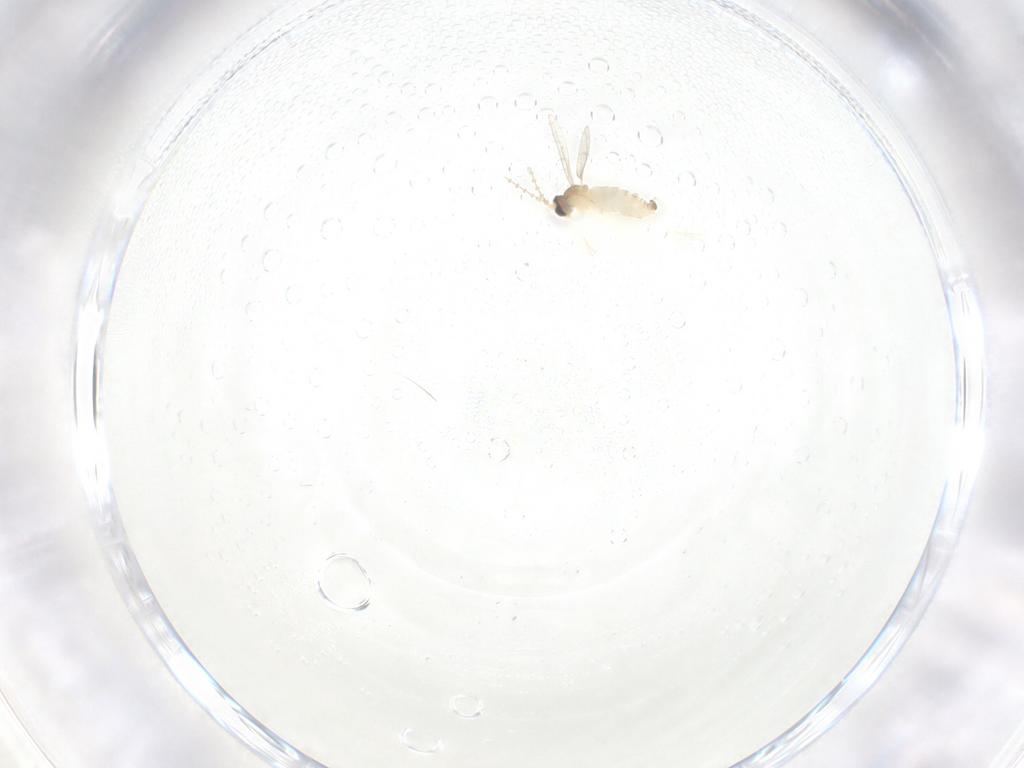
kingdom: Animalia
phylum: Arthropoda
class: Insecta
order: Diptera
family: Cecidomyiidae
